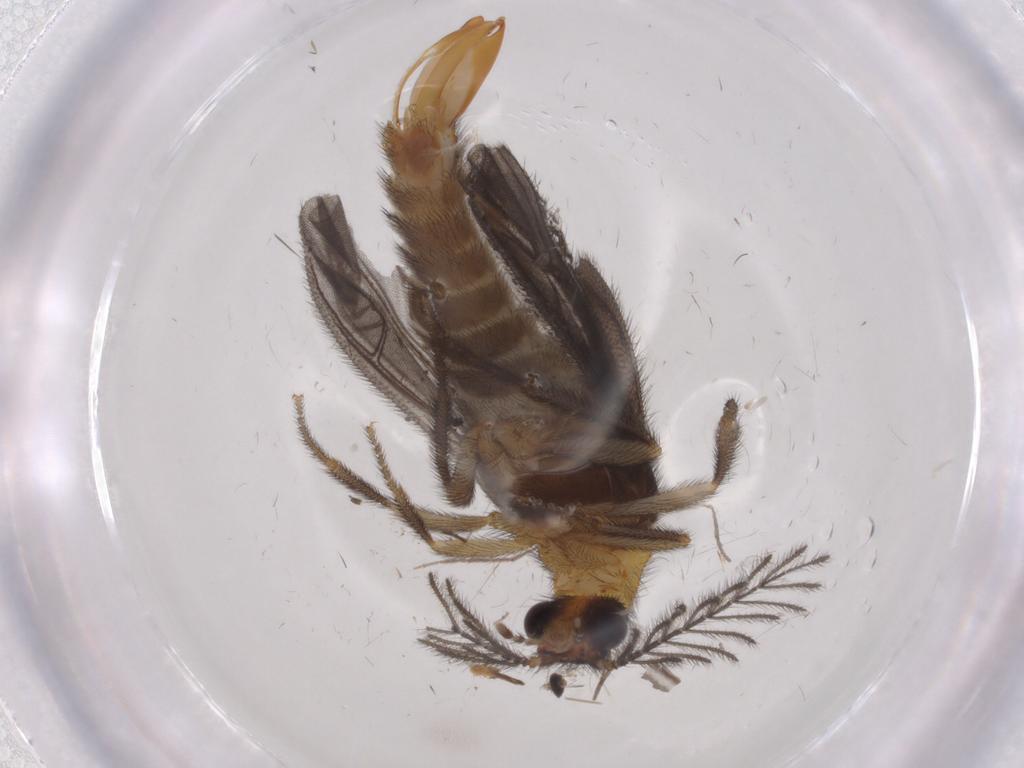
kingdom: Animalia
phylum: Arthropoda
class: Insecta
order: Coleoptera
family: Phengodidae
